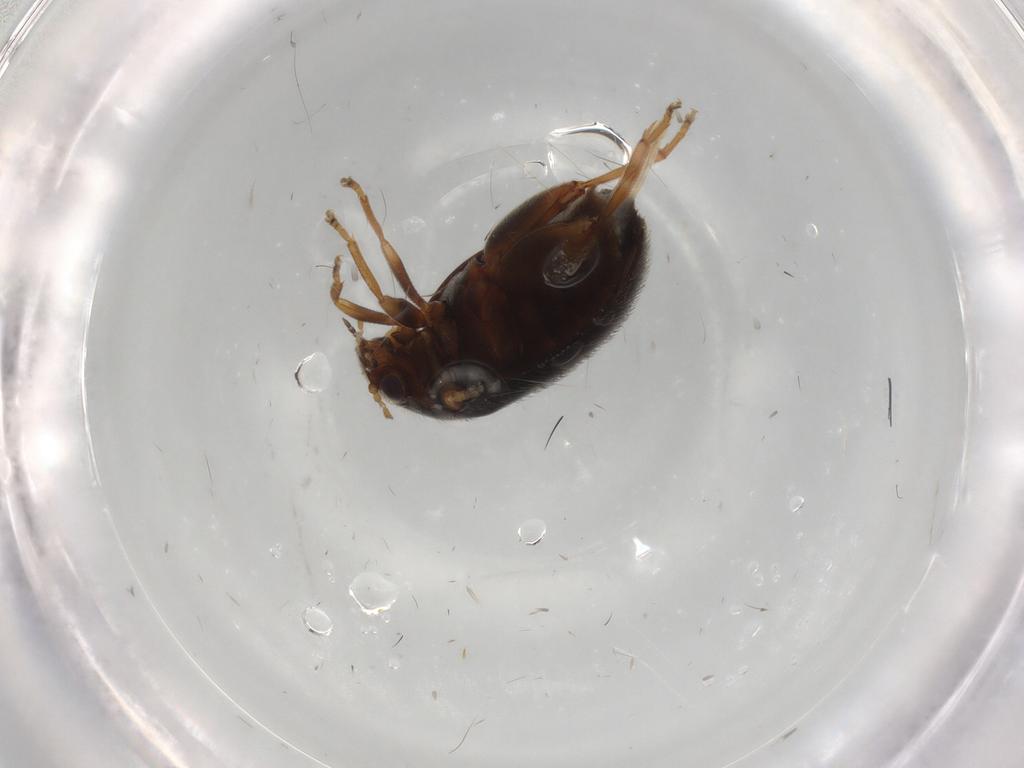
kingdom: Animalia
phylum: Arthropoda
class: Insecta
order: Coleoptera
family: Scirtidae
